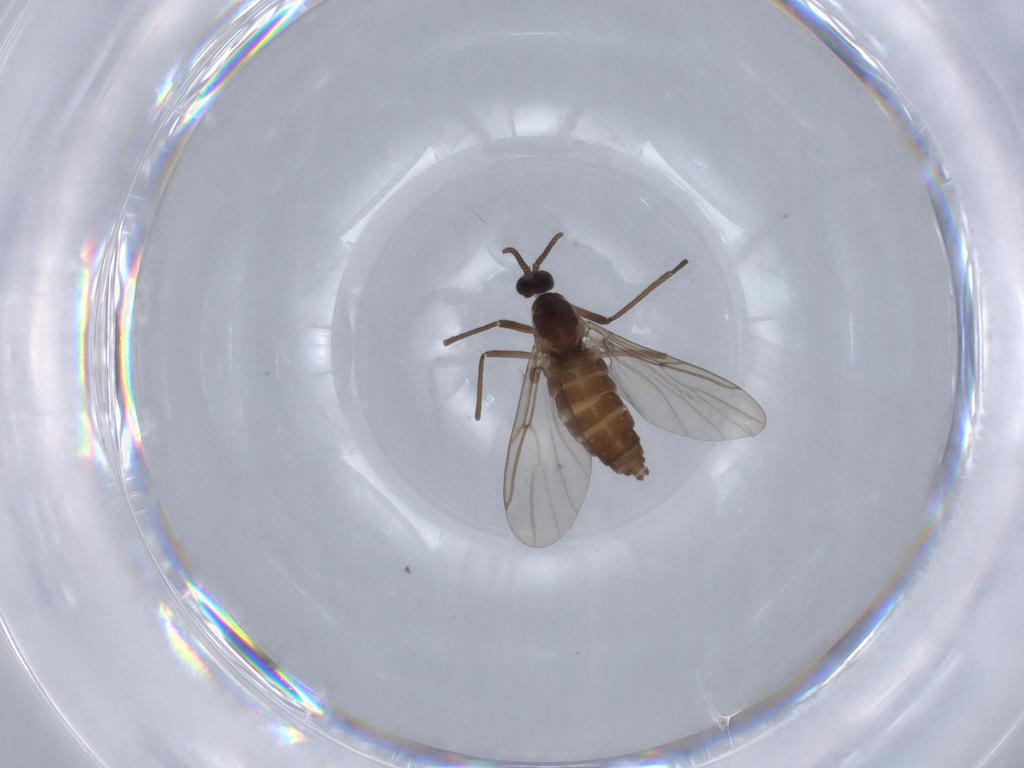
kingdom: Animalia
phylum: Arthropoda
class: Insecta
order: Diptera
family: Cecidomyiidae
